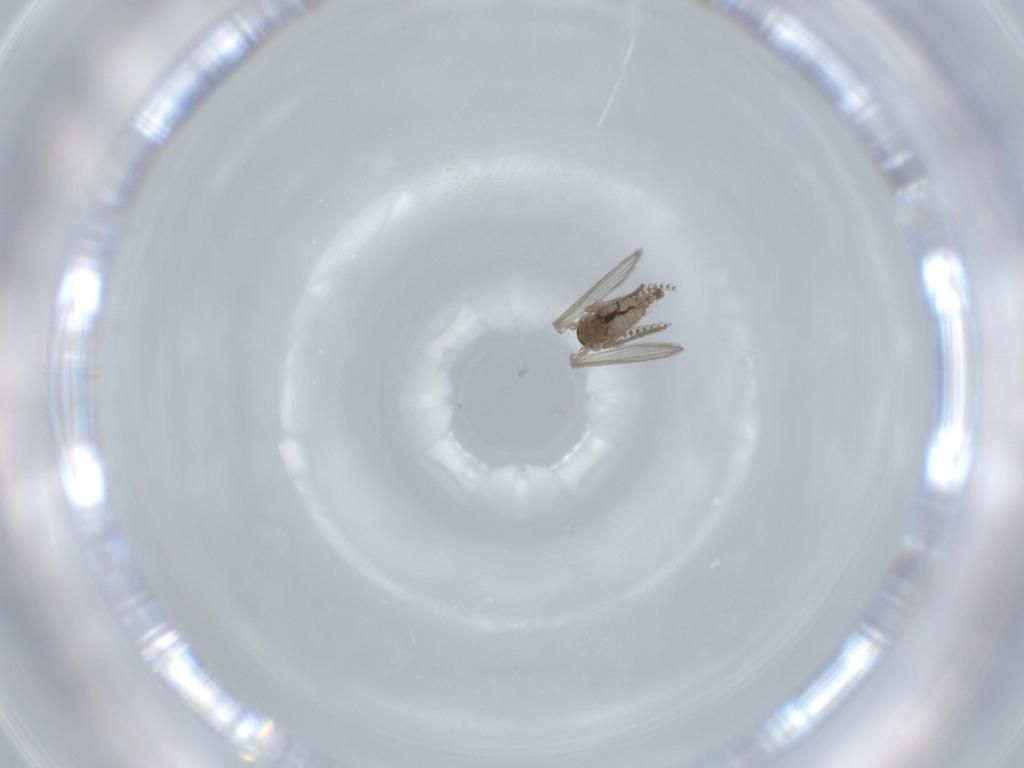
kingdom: Animalia
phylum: Arthropoda
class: Insecta
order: Diptera
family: Psychodidae
